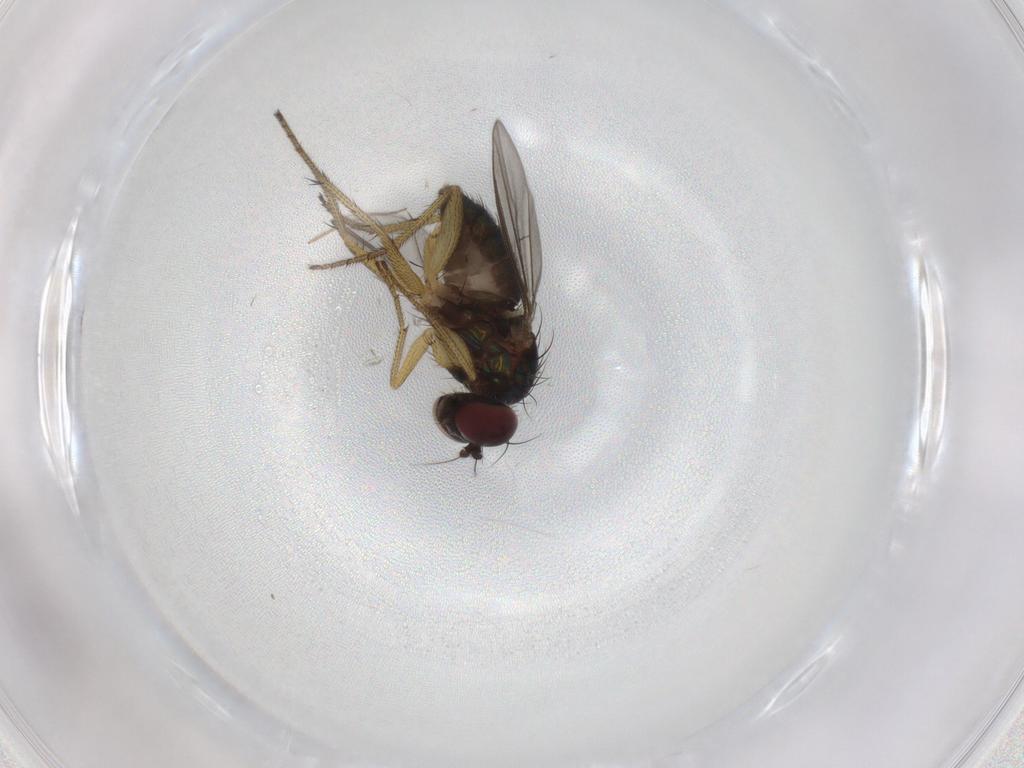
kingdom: Animalia
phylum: Arthropoda
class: Insecta
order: Diptera
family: Chironomidae
